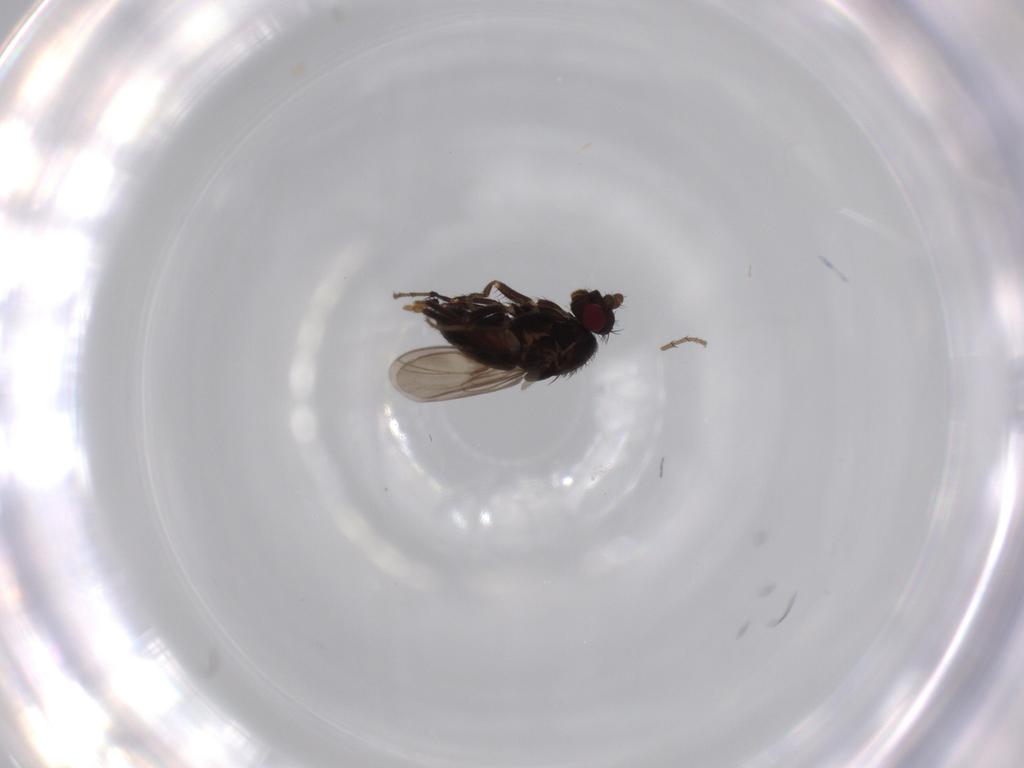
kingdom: Animalia
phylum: Arthropoda
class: Insecta
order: Diptera
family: Sphaeroceridae
